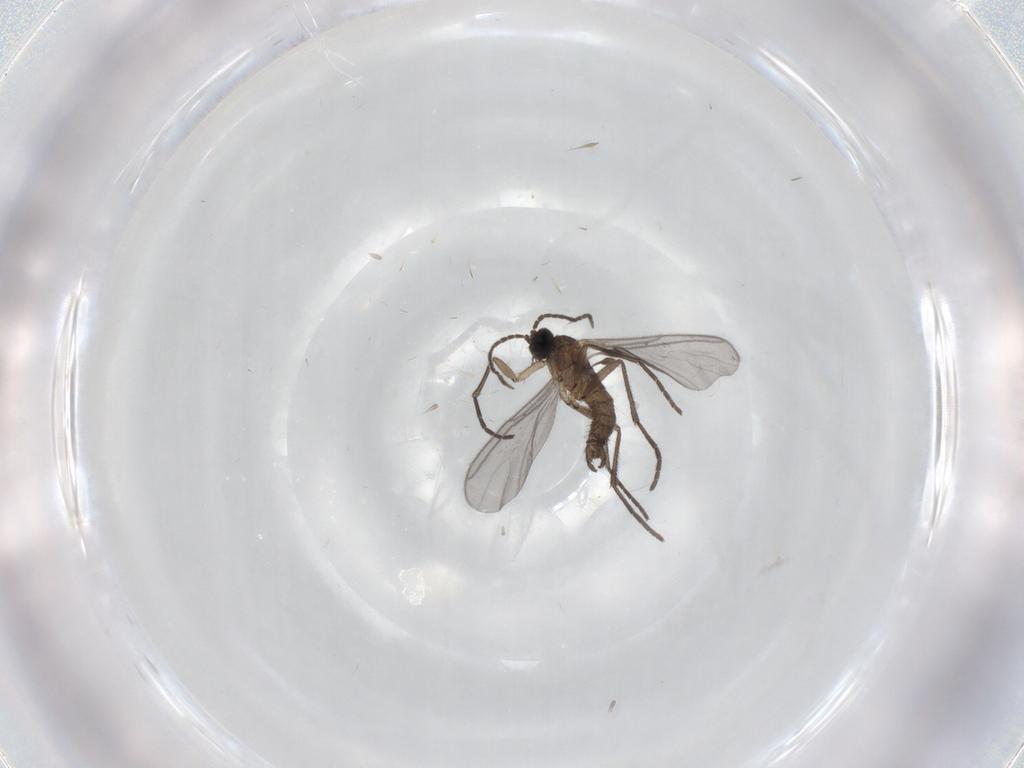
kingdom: Animalia
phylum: Arthropoda
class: Insecta
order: Diptera
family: Sciaridae
